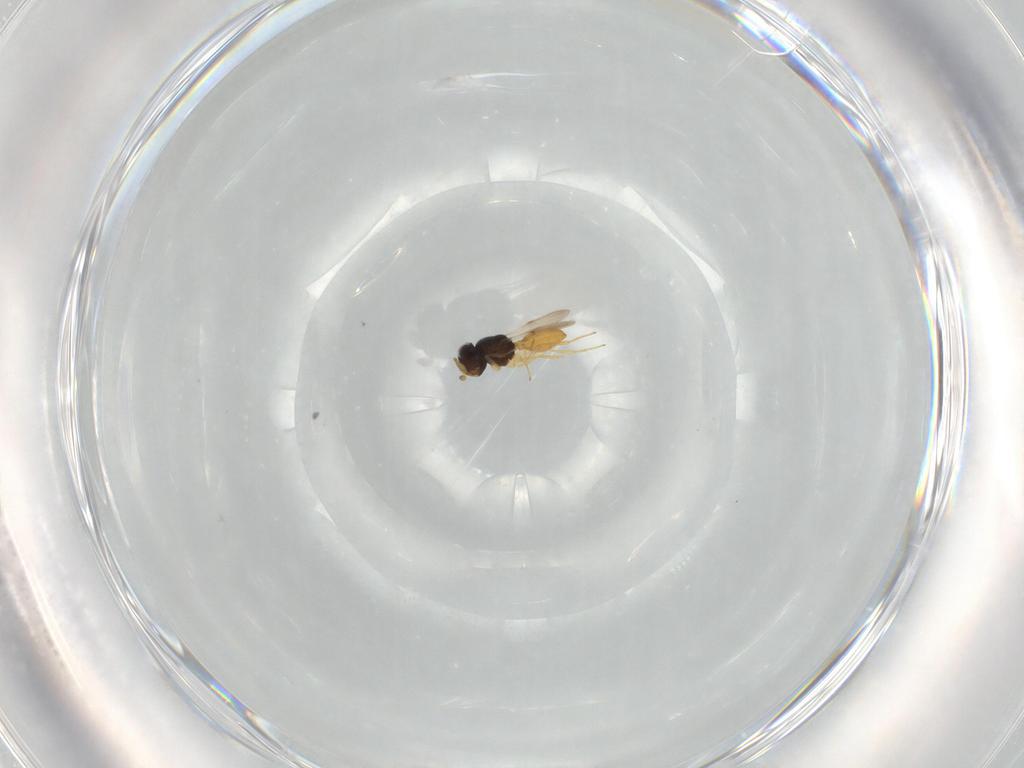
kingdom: Animalia
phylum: Arthropoda
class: Insecta
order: Hymenoptera
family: Scelionidae
